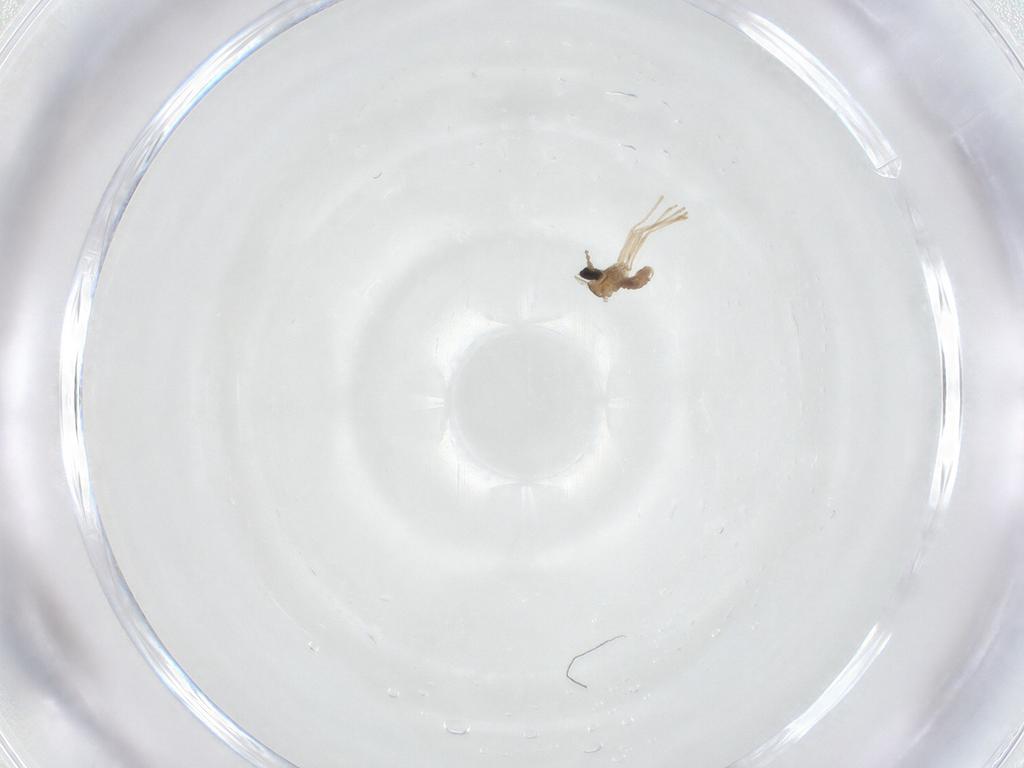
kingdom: Animalia
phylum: Arthropoda
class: Insecta
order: Diptera
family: Cecidomyiidae
